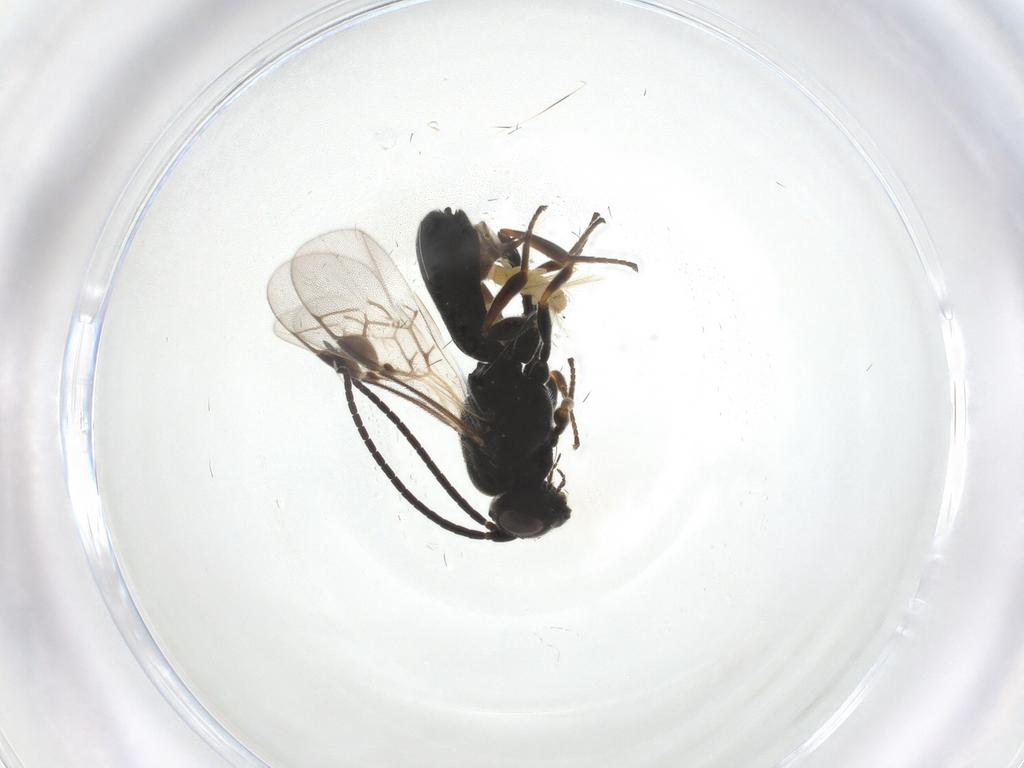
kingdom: Animalia
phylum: Arthropoda
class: Insecta
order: Hymenoptera
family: Braconidae
